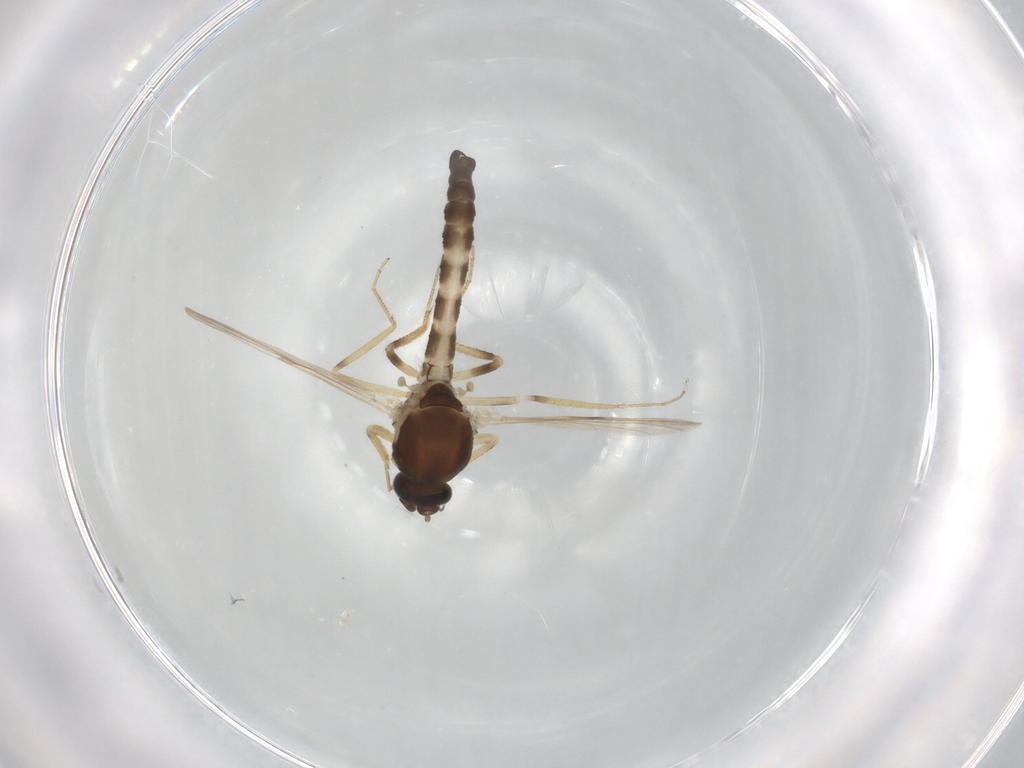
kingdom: Animalia
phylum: Arthropoda
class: Insecta
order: Diptera
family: Ceratopogonidae
